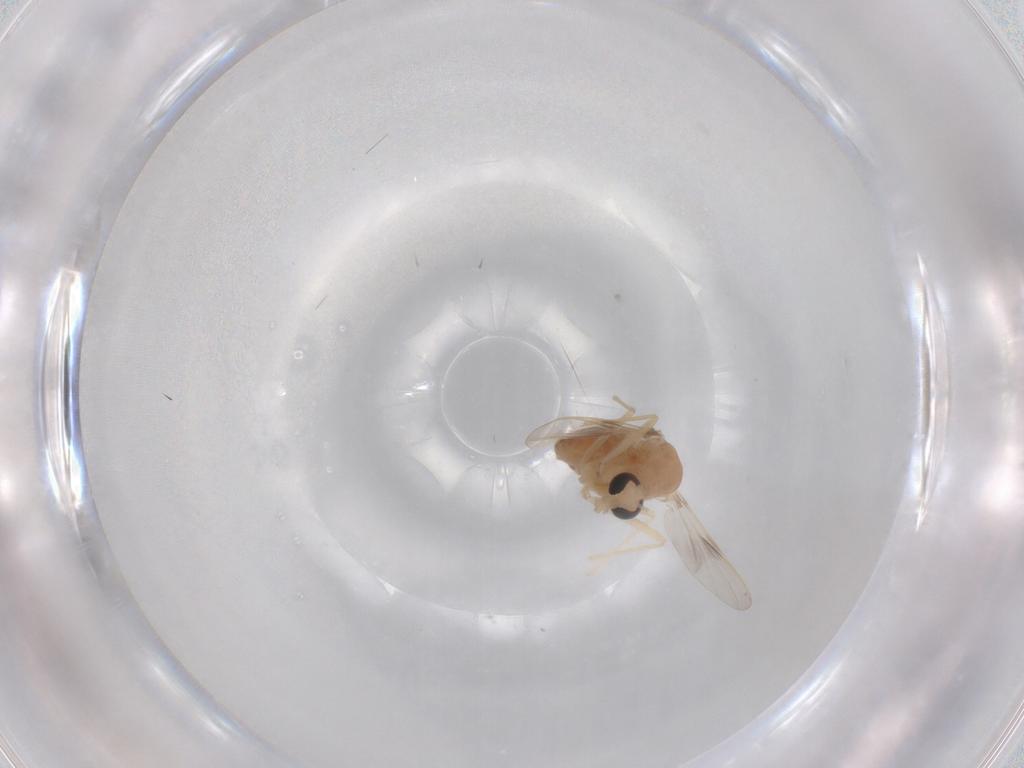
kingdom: Animalia
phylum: Arthropoda
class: Insecta
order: Diptera
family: Chironomidae
